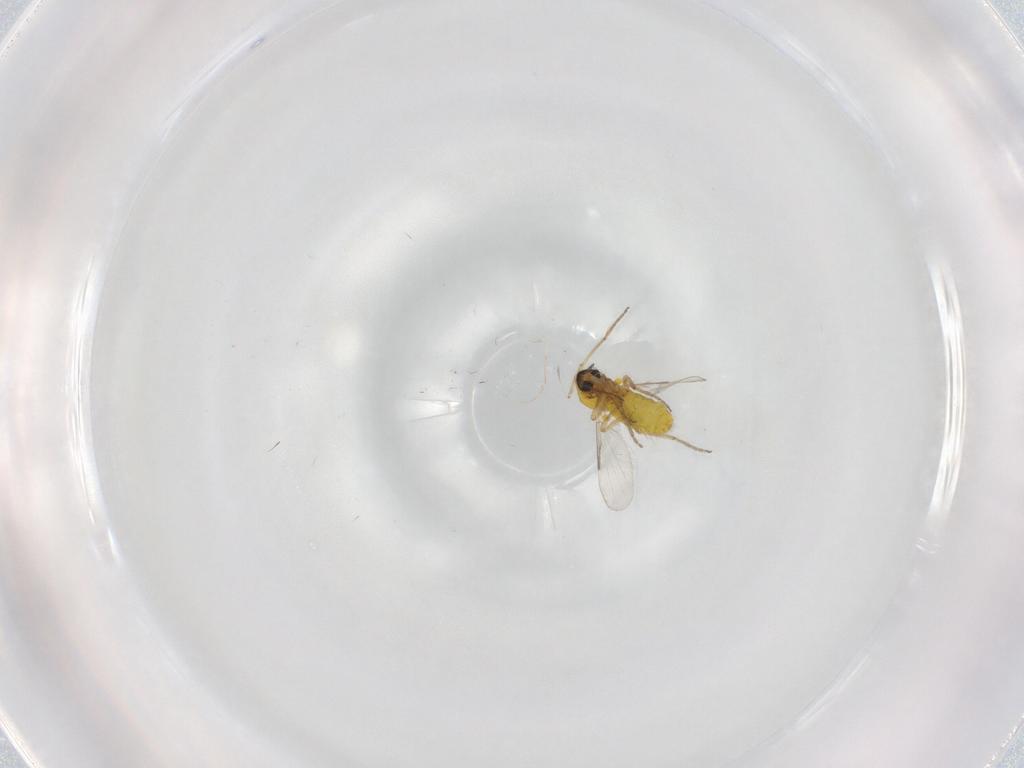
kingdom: Animalia
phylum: Arthropoda
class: Insecta
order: Diptera
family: Ceratopogonidae
